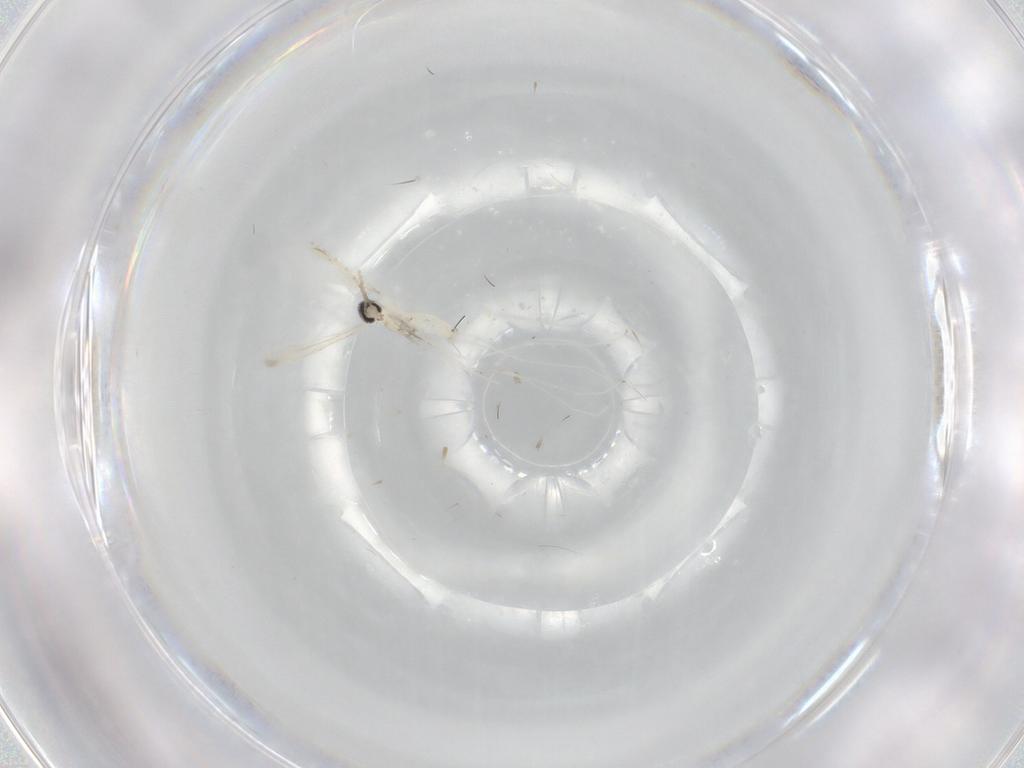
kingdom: Animalia
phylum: Arthropoda
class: Insecta
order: Diptera
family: Cecidomyiidae
